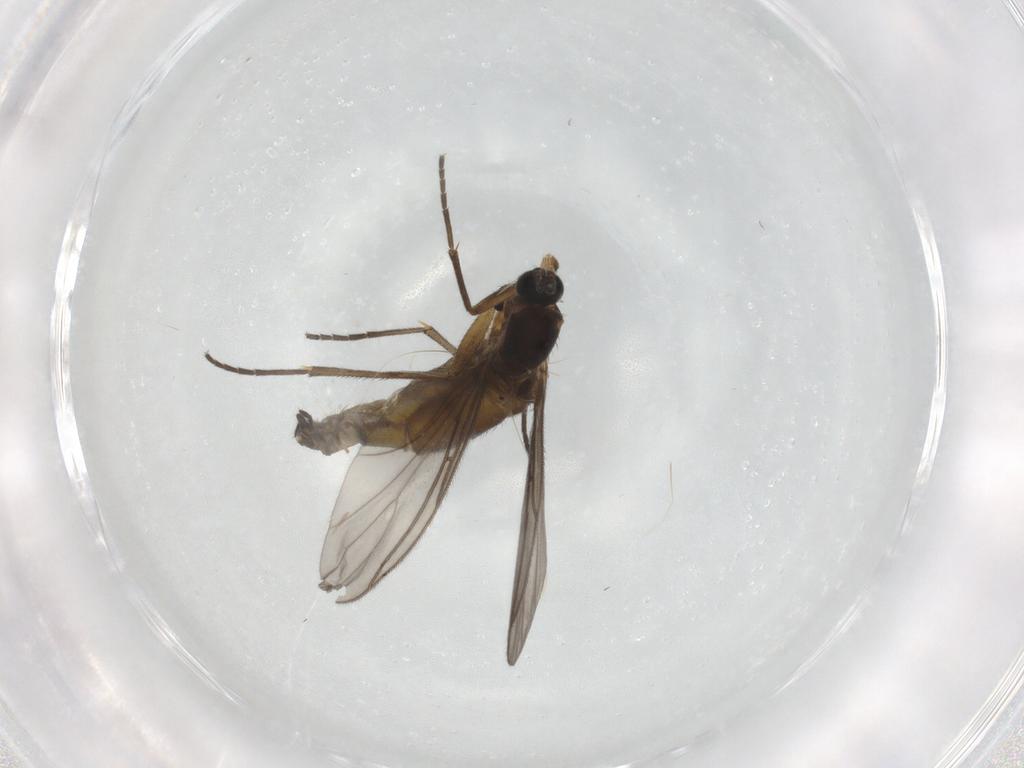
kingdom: Animalia
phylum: Arthropoda
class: Insecta
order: Diptera
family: Sciaridae
